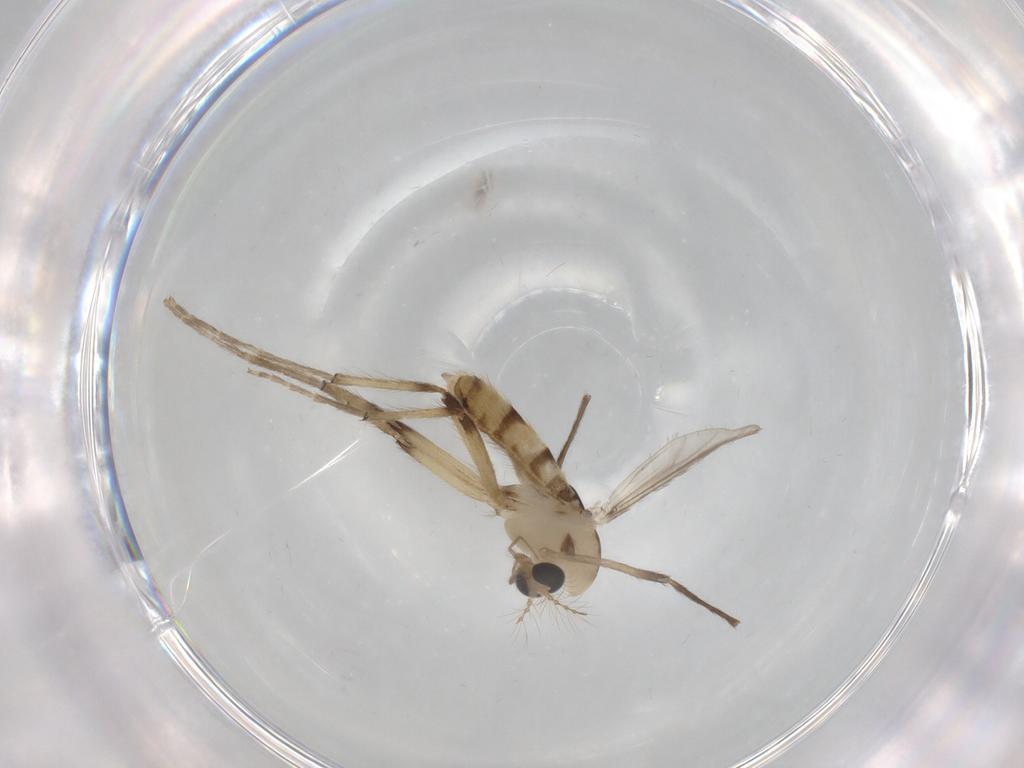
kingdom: Animalia
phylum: Arthropoda
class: Insecta
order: Diptera
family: Chironomidae
